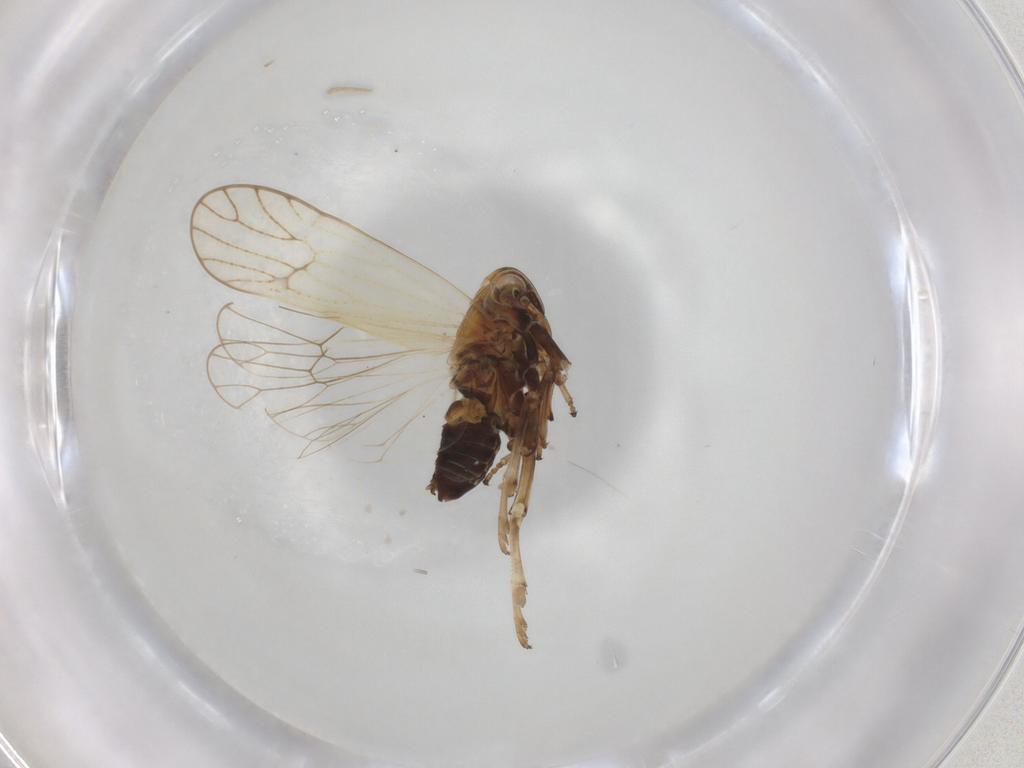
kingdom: Animalia
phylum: Arthropoda
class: Insecta
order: Hemiptera
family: Delphacidae
